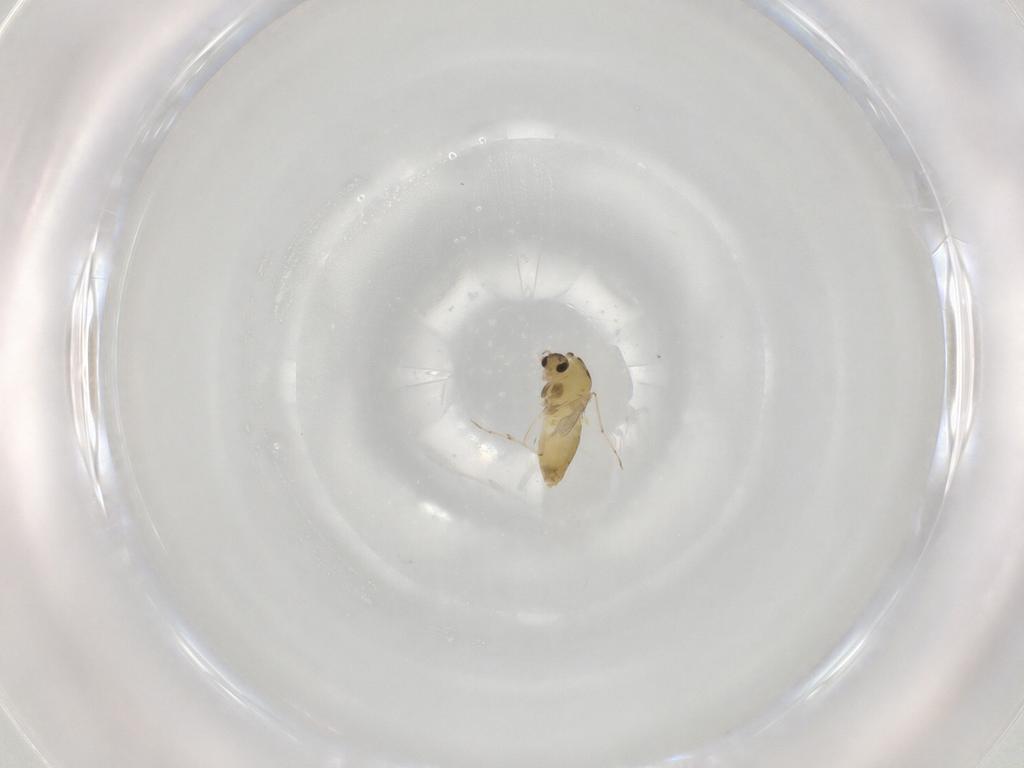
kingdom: Animalia
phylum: Arthropoda
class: Insecta
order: Diptera
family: Chironomidae
